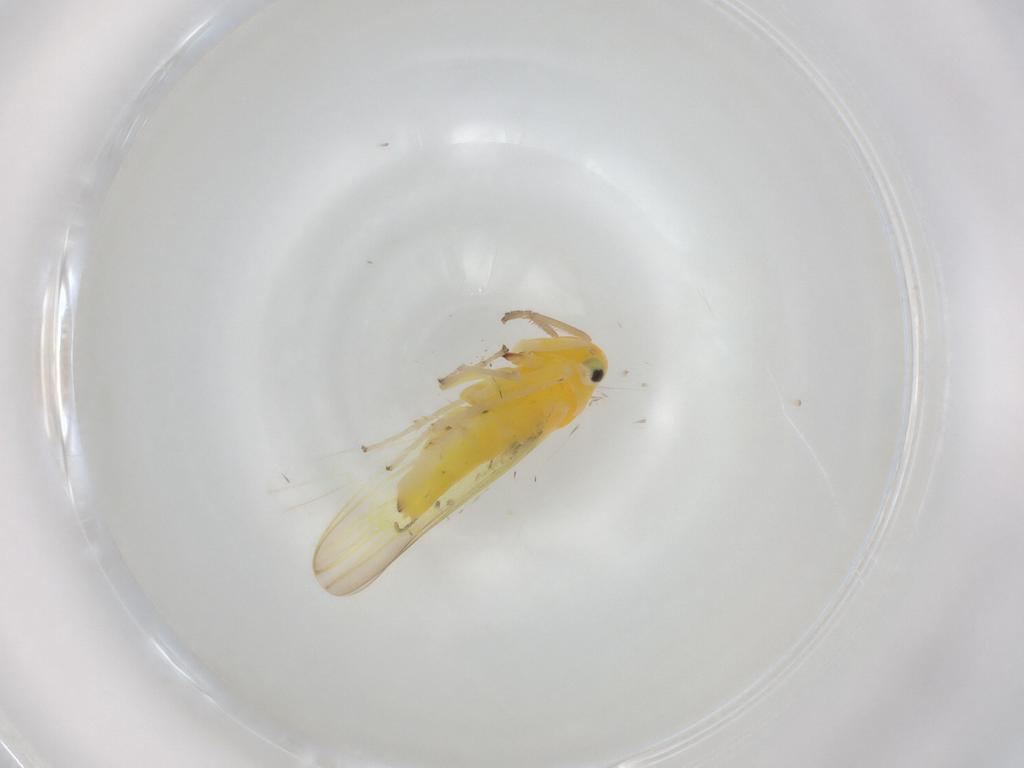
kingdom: Animalia
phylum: Arthropoda
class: Insecta
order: Hemiptera
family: Cicadellidae
